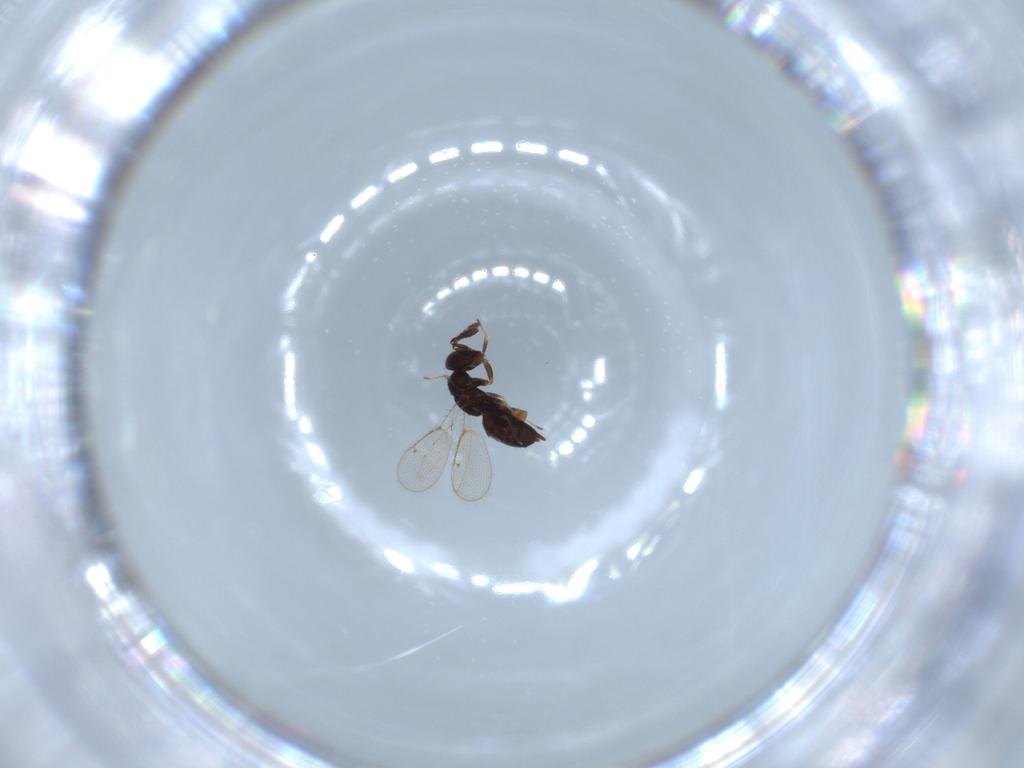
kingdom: Animalia
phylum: Arthropoda
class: Insecta
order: Hymenoptera
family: Pirenidae
